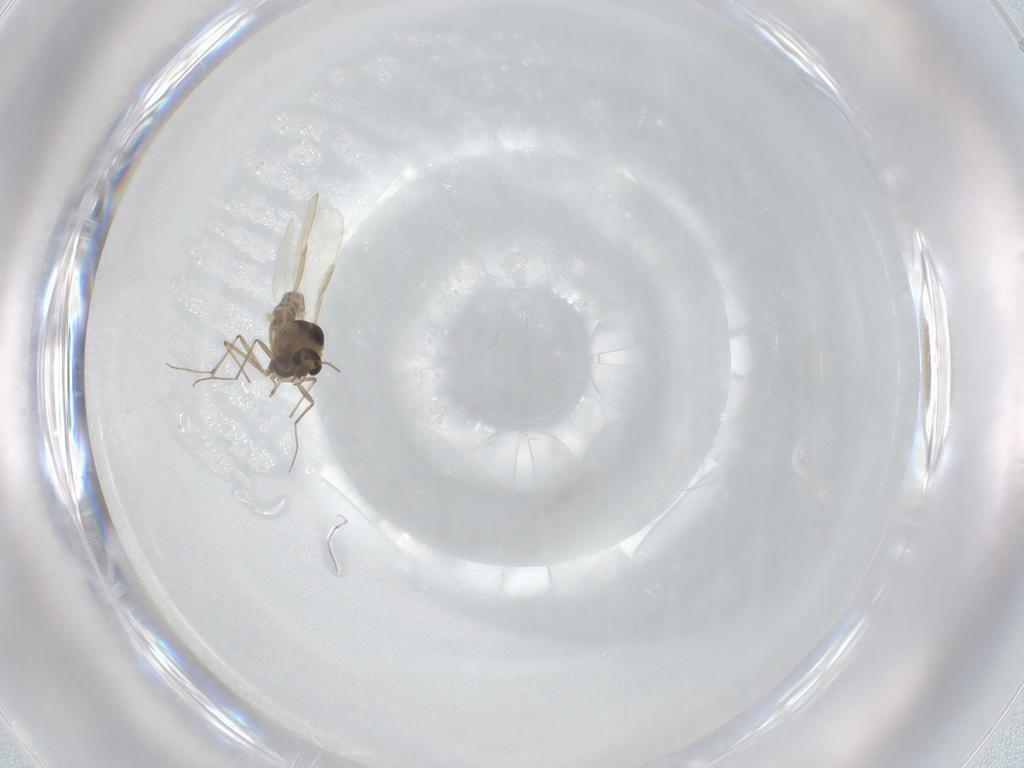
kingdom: Animalia
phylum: Arthropoda
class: Insecta
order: Diptera
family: Chironomidae
